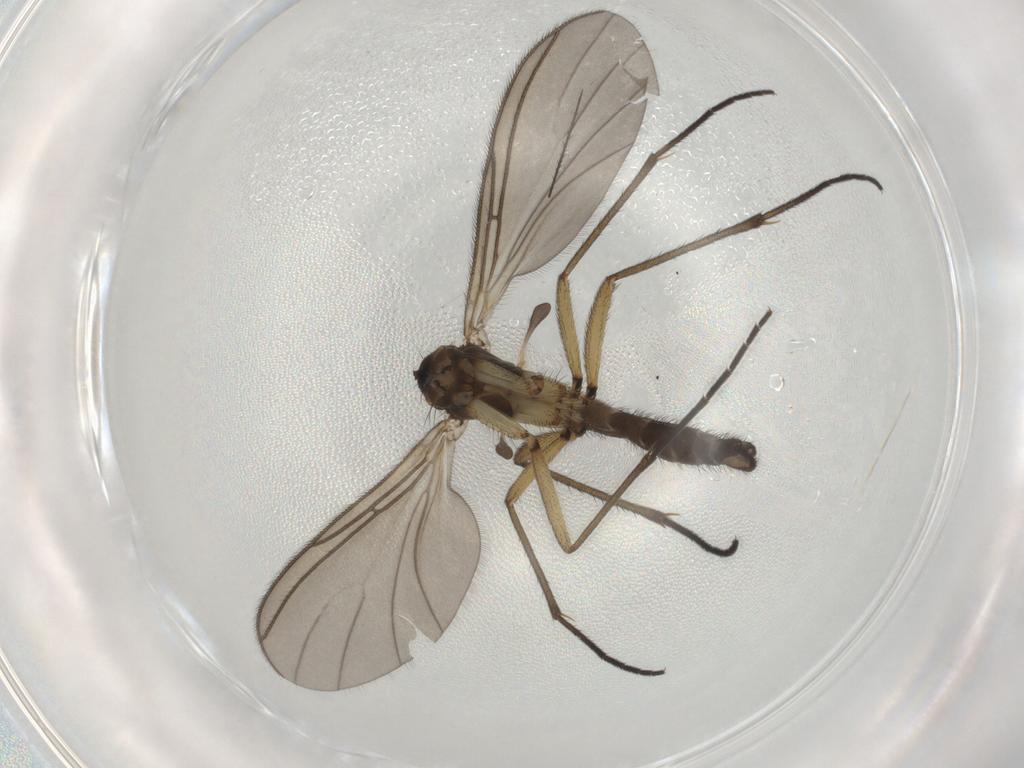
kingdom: Animalia
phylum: Arthropoda
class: Insecta
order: Diptera
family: Sciaridae
